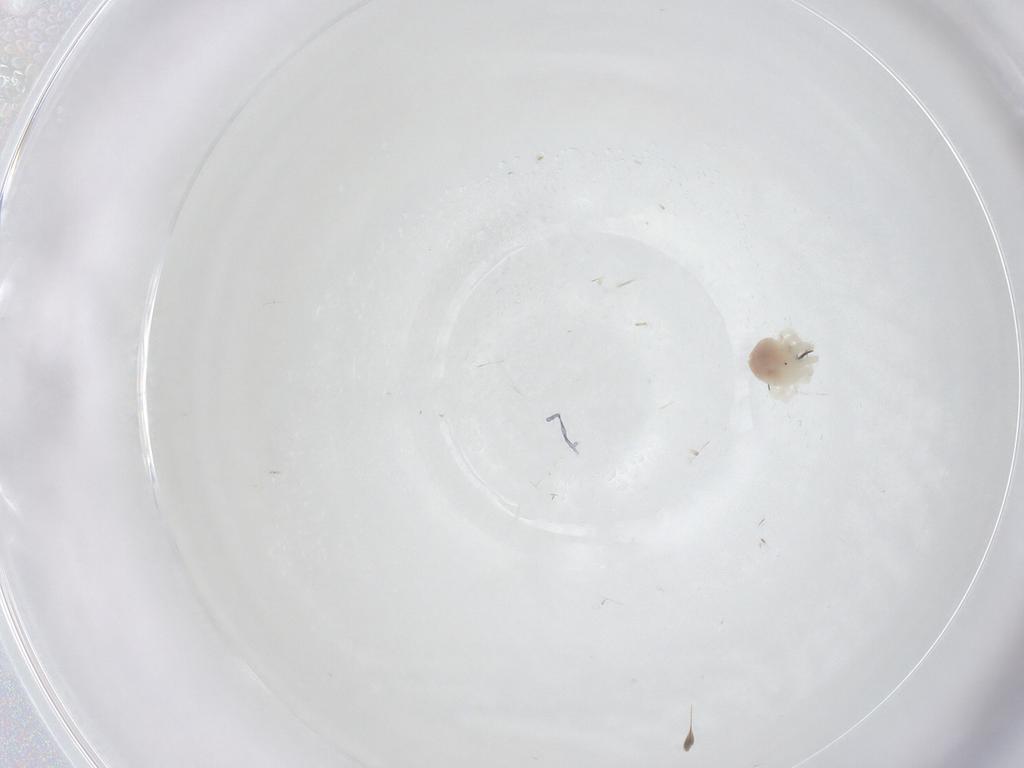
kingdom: Animalia
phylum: Arthropoda
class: Arachnida
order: Trombidiformes
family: Anystidae
